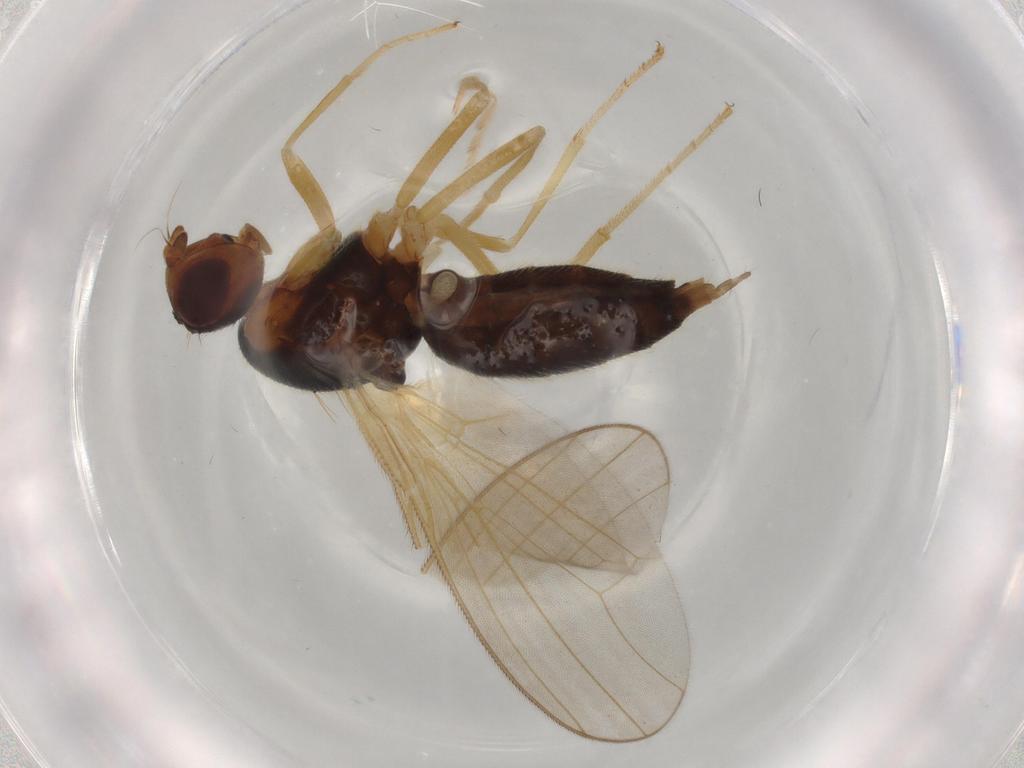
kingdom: Animalia
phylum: Arthropoda
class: Insecta
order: Diptera
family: Psilidae
